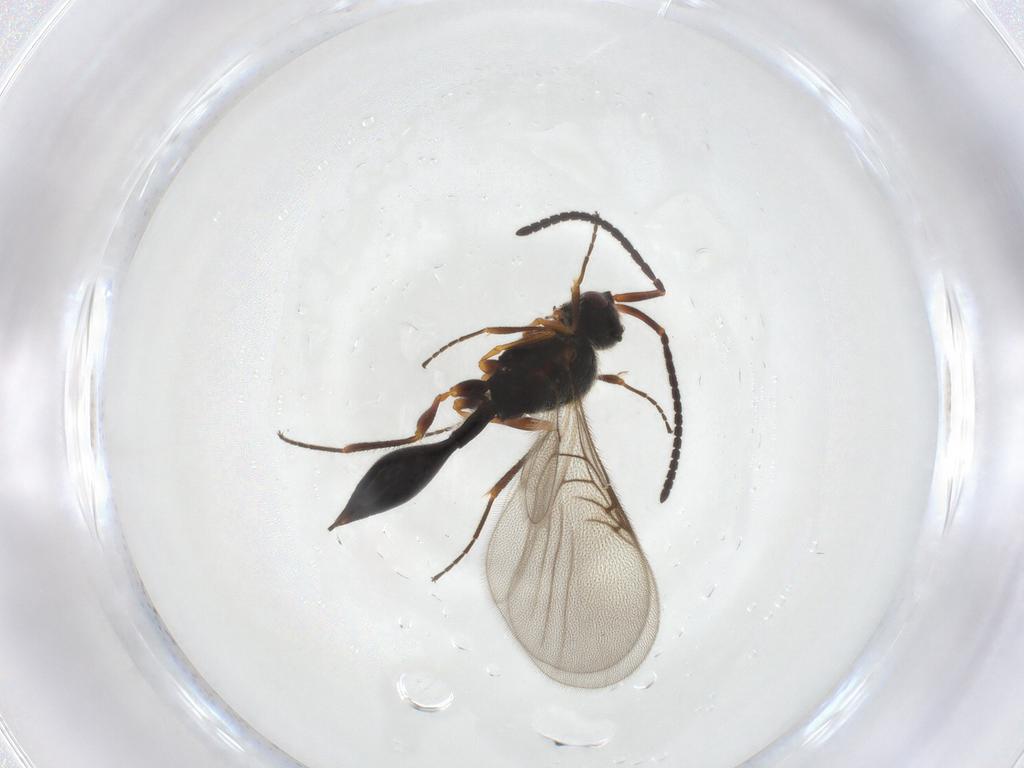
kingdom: Animalia
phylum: Arthropoda
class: Insecta
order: Hymenoptera
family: Diapriidae
